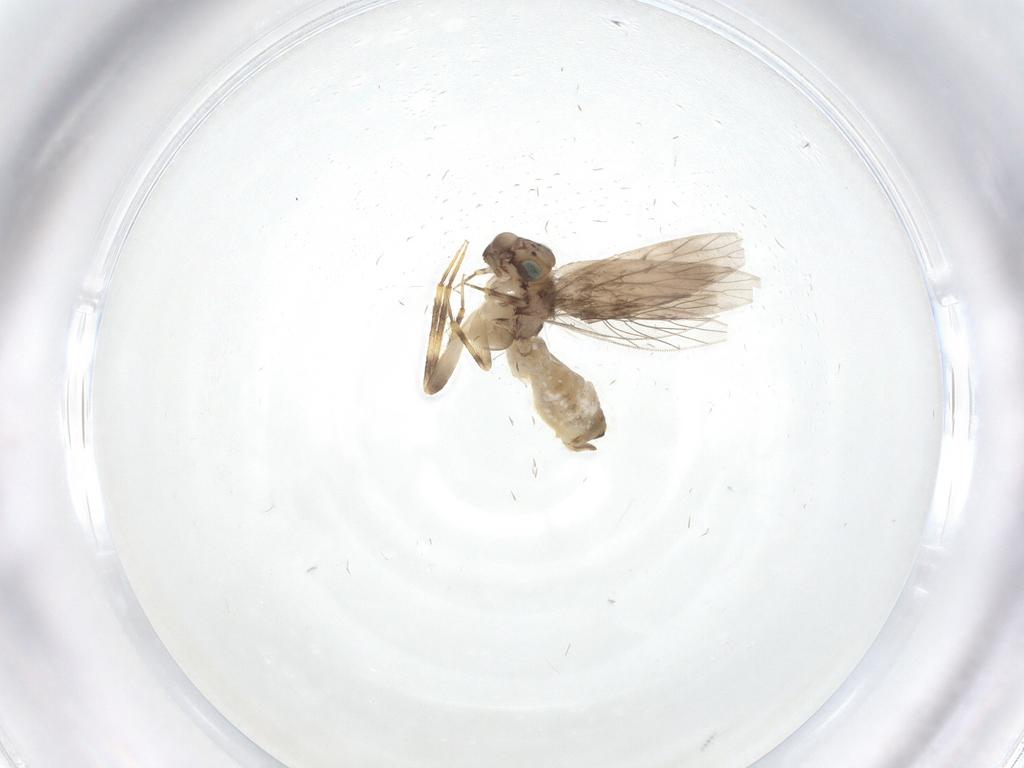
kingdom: Animalia
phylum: Arthropoda
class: Insecta
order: Psocodea
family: Lepidopsocidae
